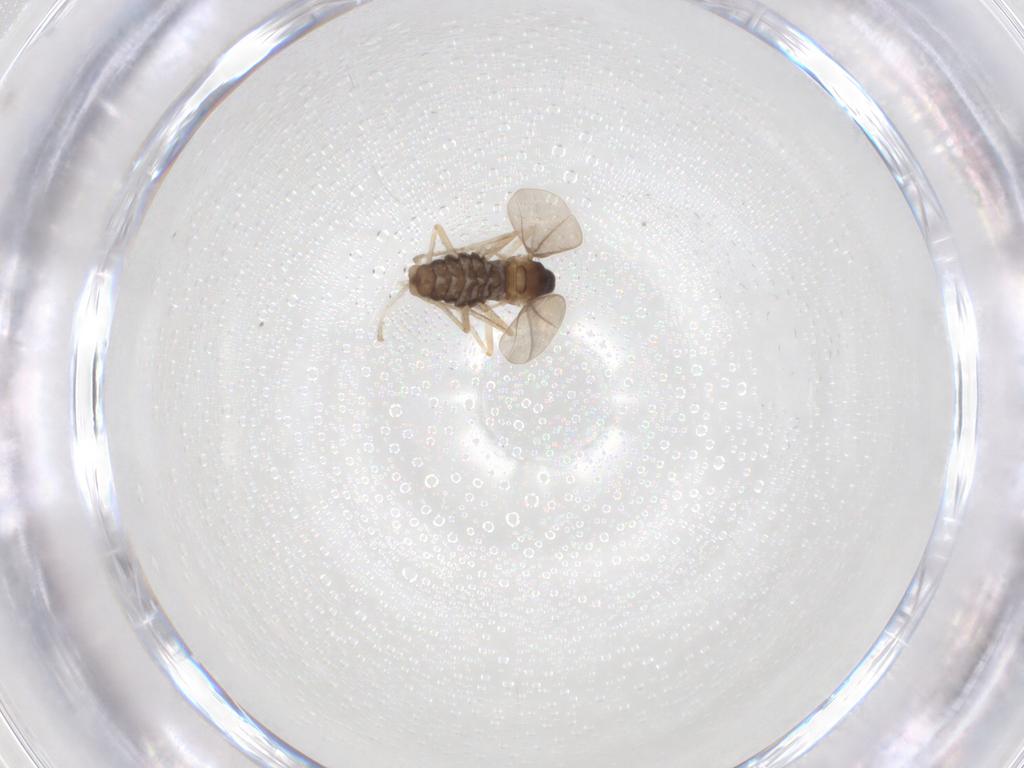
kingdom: Animalia
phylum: Arthropoda
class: Insecta
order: Diptera
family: Cecidomyiidae
